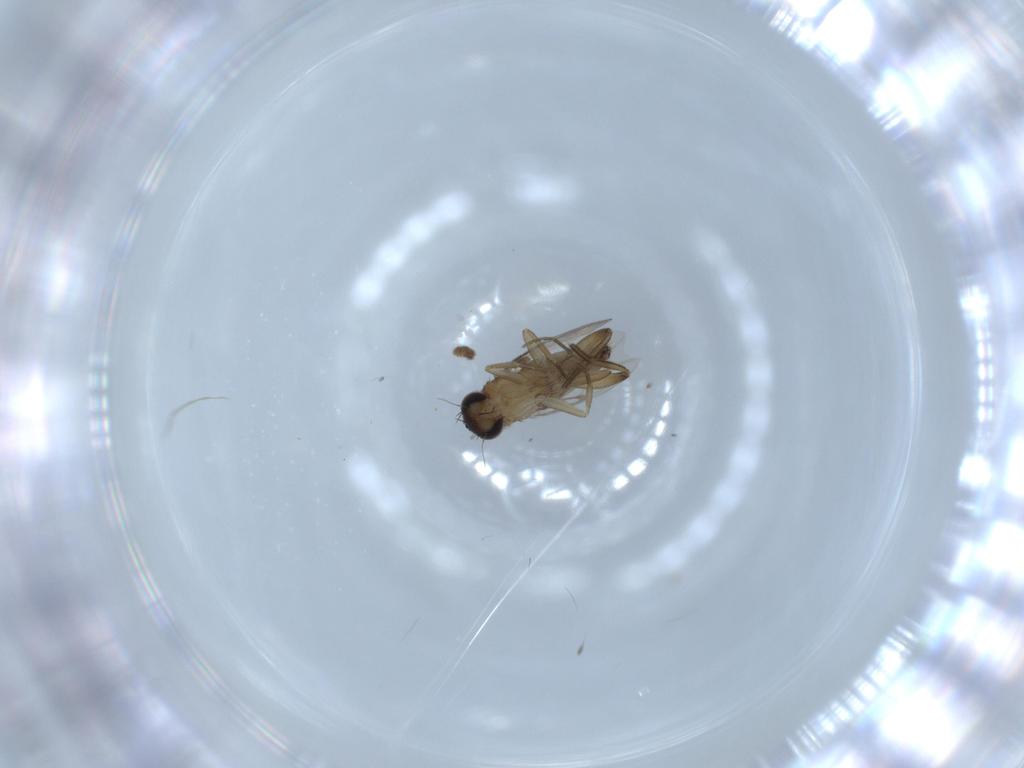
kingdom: Animalia
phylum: Arthropoda
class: Insecta
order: Diptera
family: Phoridae
